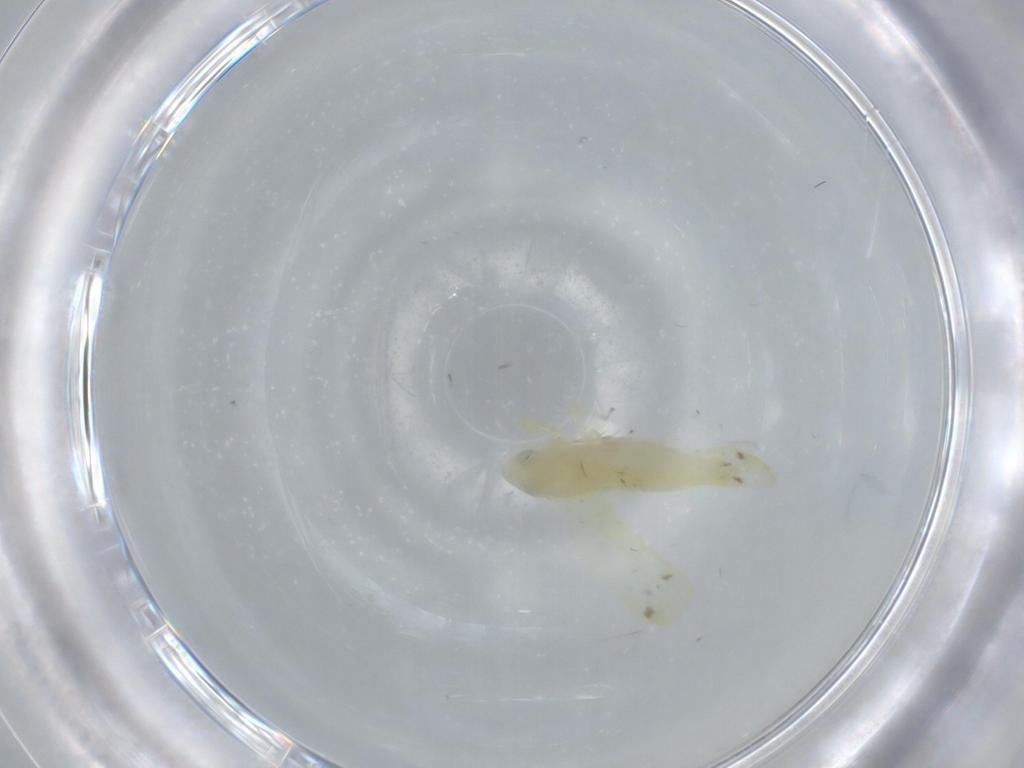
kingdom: Animalia
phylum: Arthropoda
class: Insecta
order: Hemiptera
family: Cicadellidae
